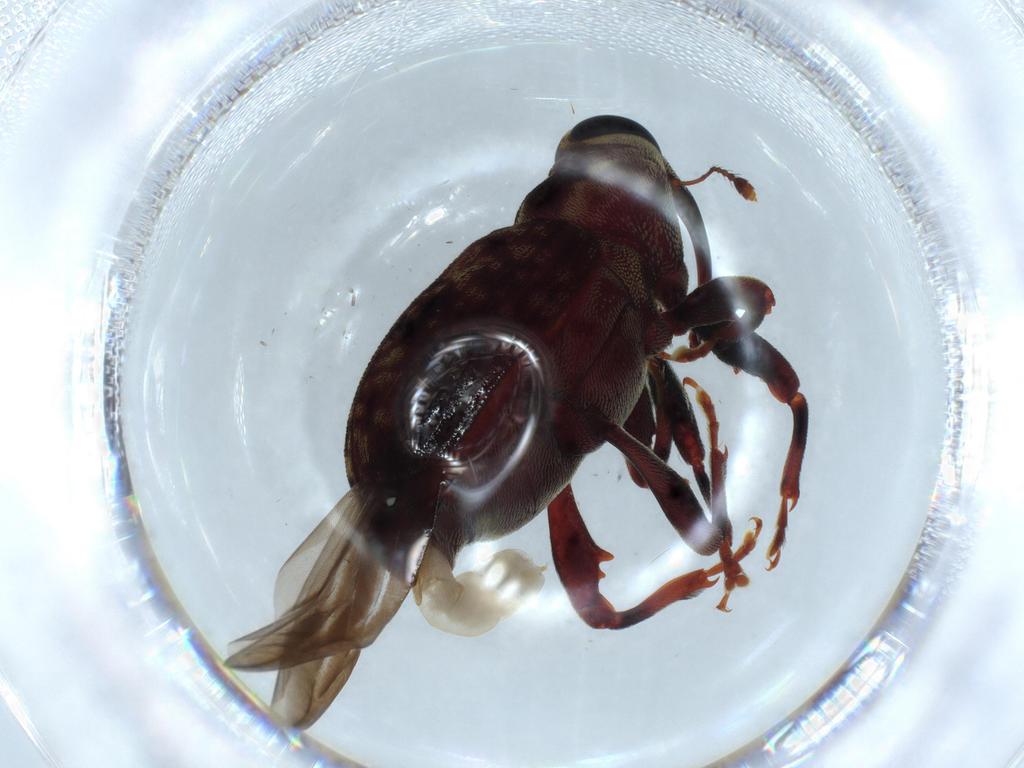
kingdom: Animalia
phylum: Arthropoda
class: Insecta
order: Coleoptera
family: Curculionidae
